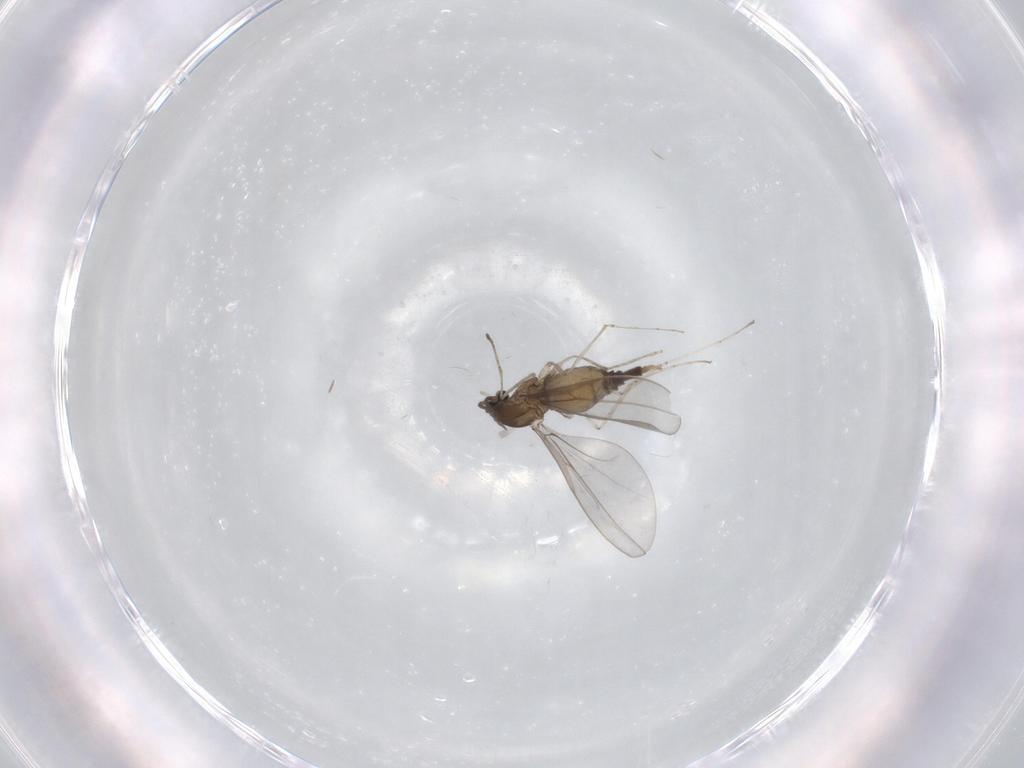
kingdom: Animalia
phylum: Arthropoda
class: Insecta
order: Diptera
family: Cecidomyiidae
